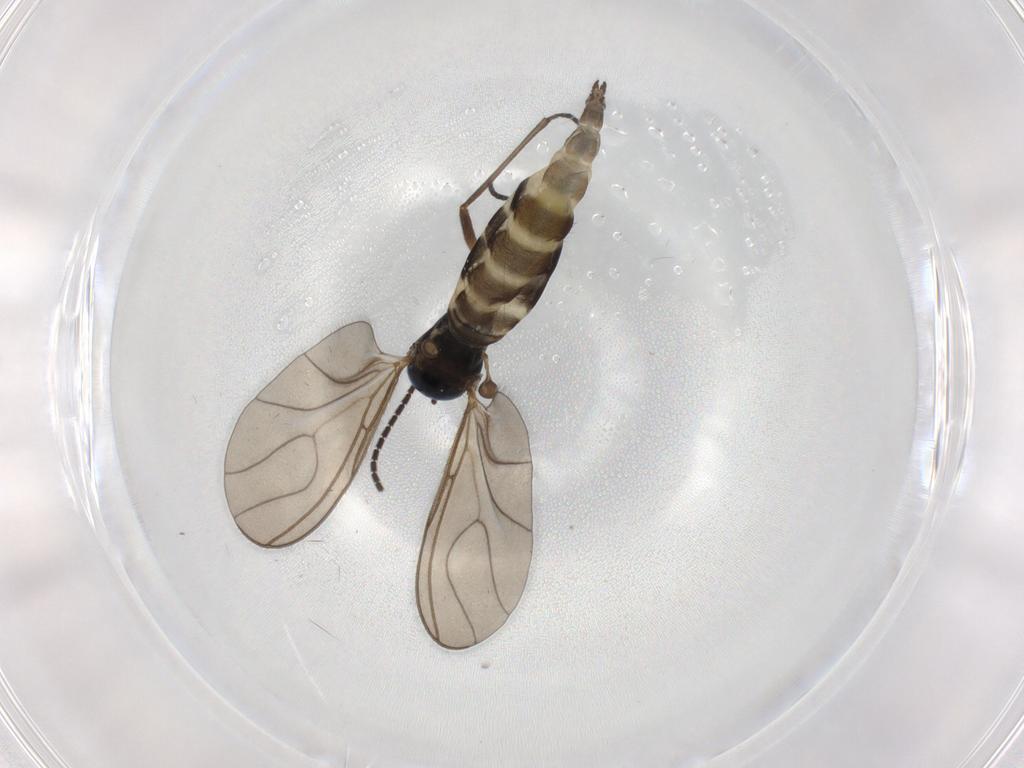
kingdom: Animalia
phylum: Arthropoda
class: Insecta
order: Diptera
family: Sciaridae
